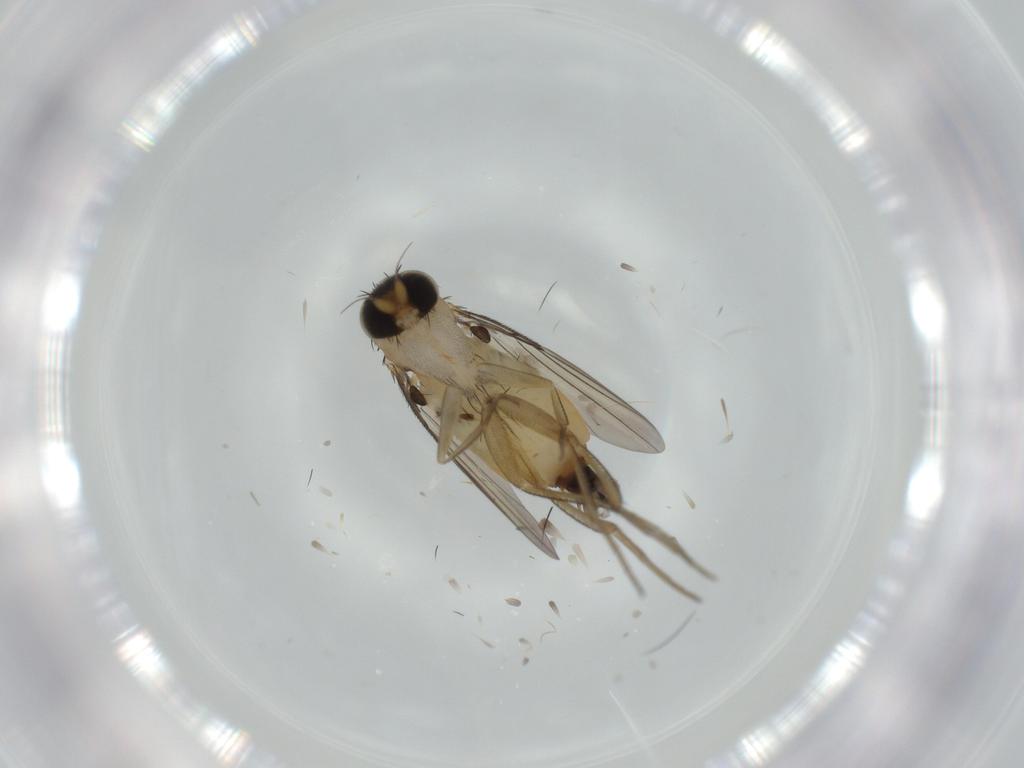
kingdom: Animalia
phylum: Arthropoda
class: Insecta
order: Diptera
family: Phoridae
